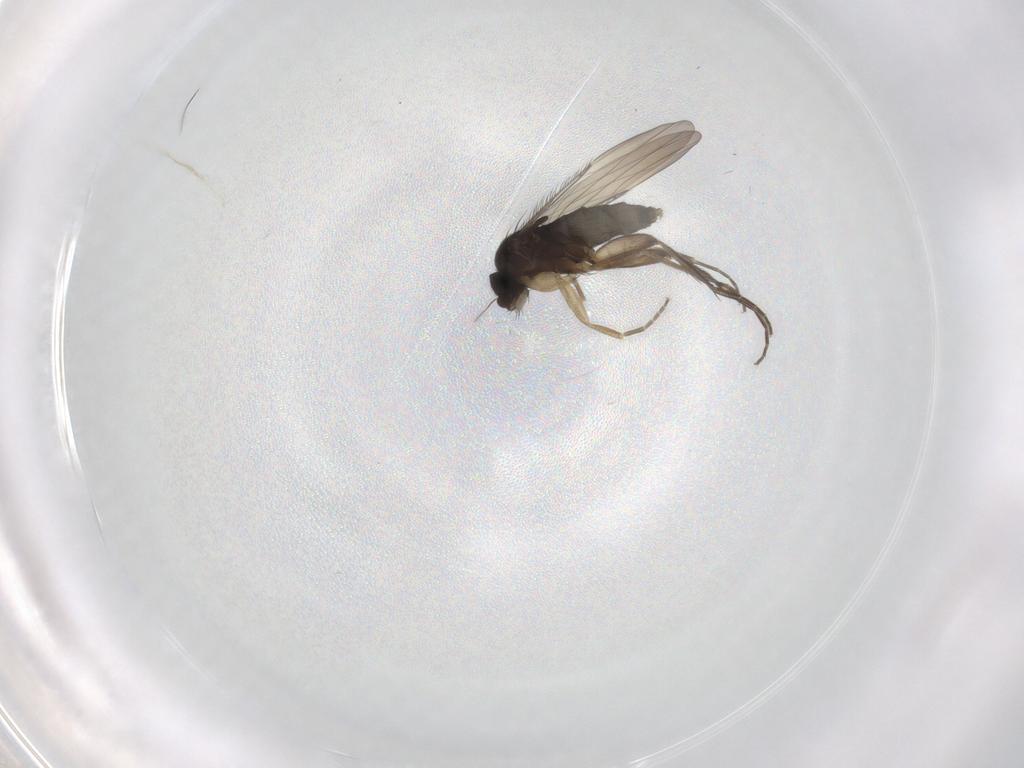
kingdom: Animalia
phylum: Arthropoda
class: Insecta
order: Diptera
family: Phoridae
